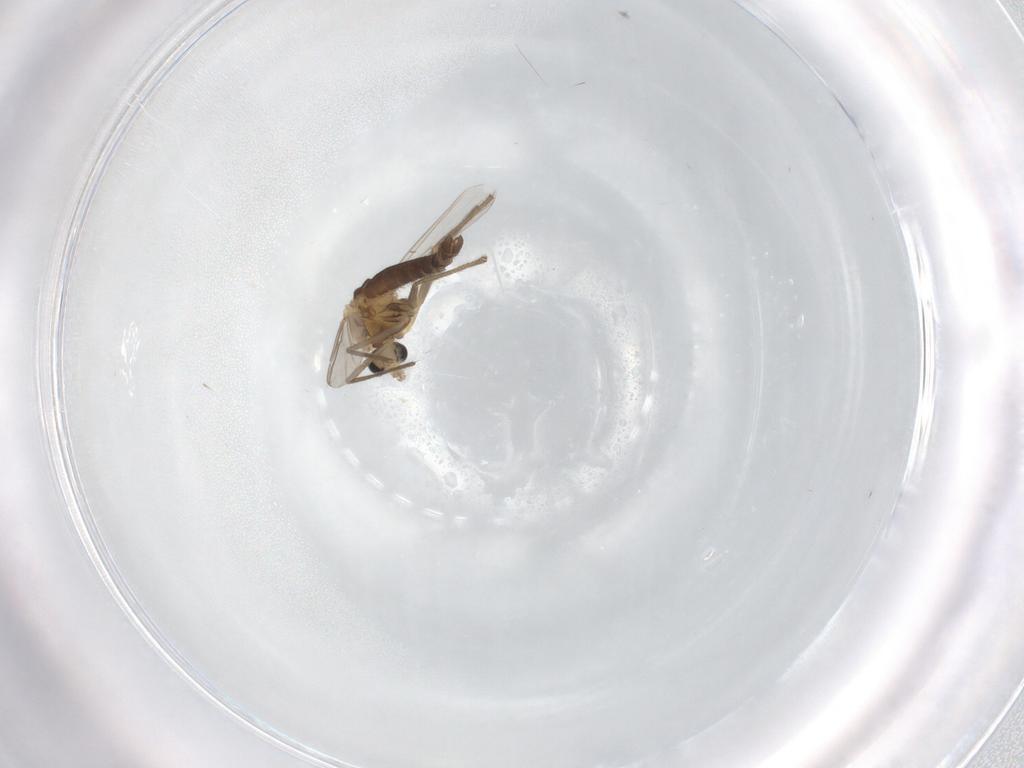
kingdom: Animalia
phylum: Arthropoda
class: Insecta
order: Diptera
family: Chironomidae
